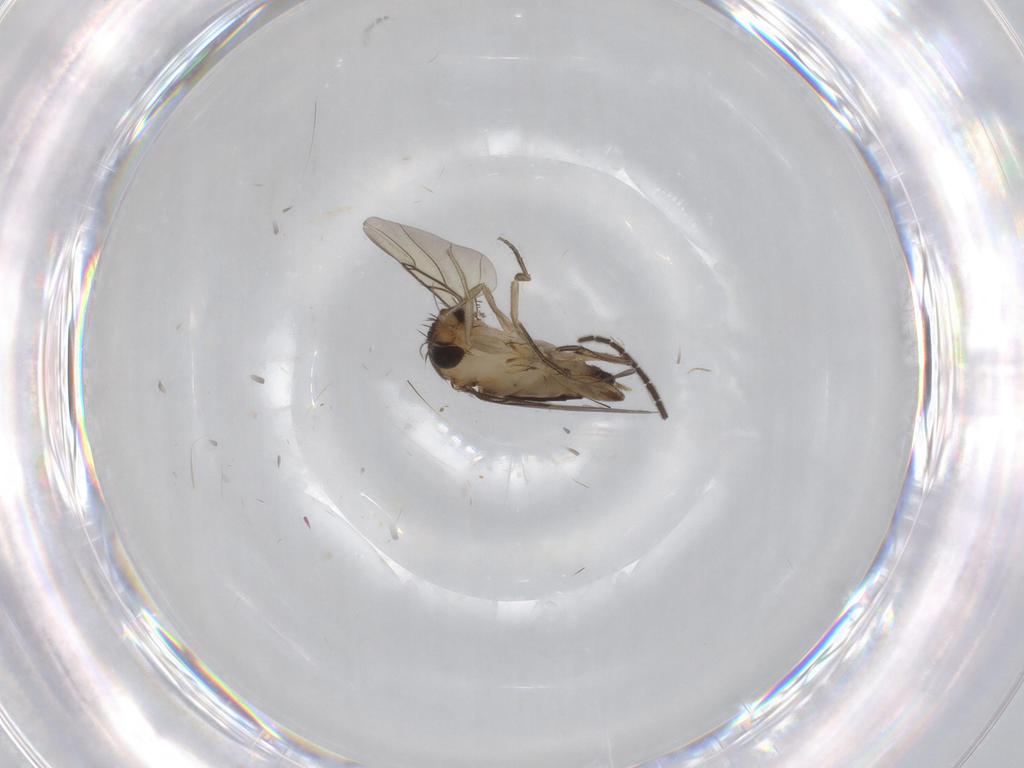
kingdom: Animalia
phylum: Arthropoda
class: Insecta
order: Diptera
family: Phoridae
